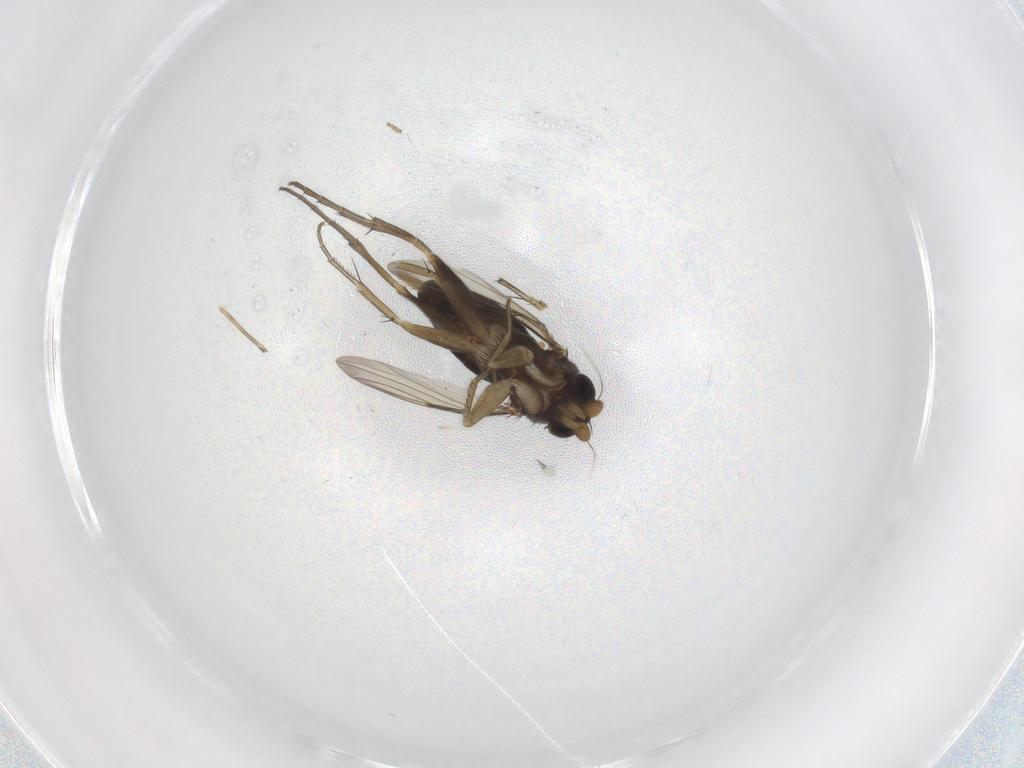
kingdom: Animalia
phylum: Arthropoda
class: Insecta
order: Diptera
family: Phoridae
